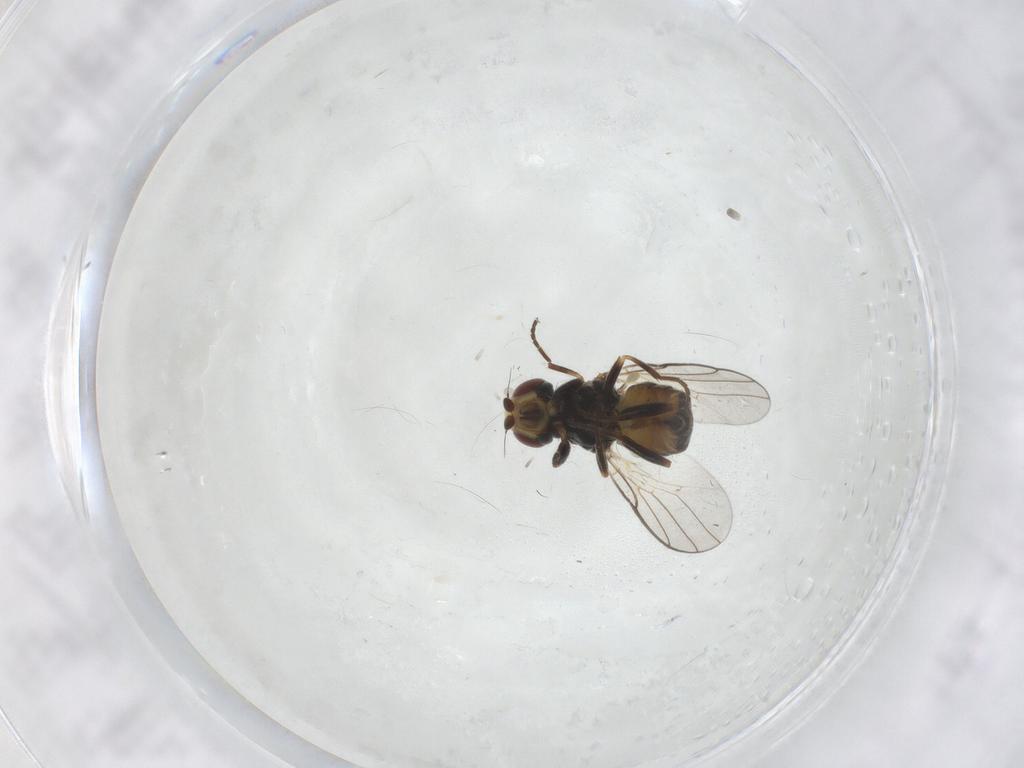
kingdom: Animalia
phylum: Arthropoda
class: Insecta
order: Diptera
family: Chloropidae
